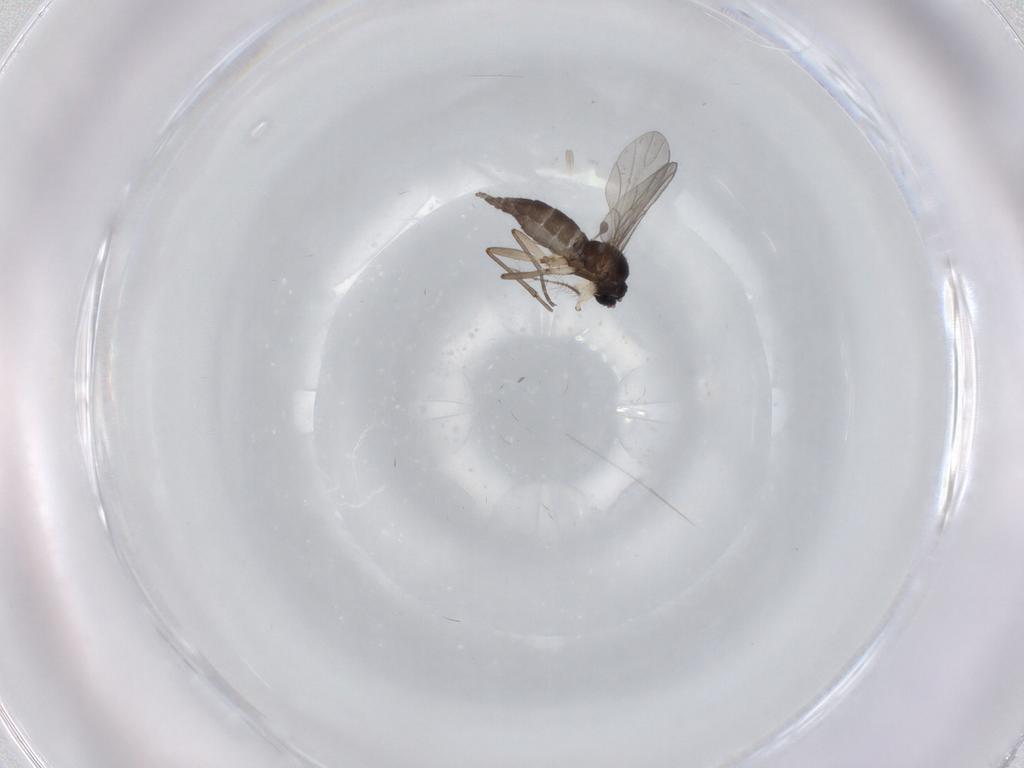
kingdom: Animalia
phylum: Arthropoda
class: Insecta
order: Diptera
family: Sciaridae
